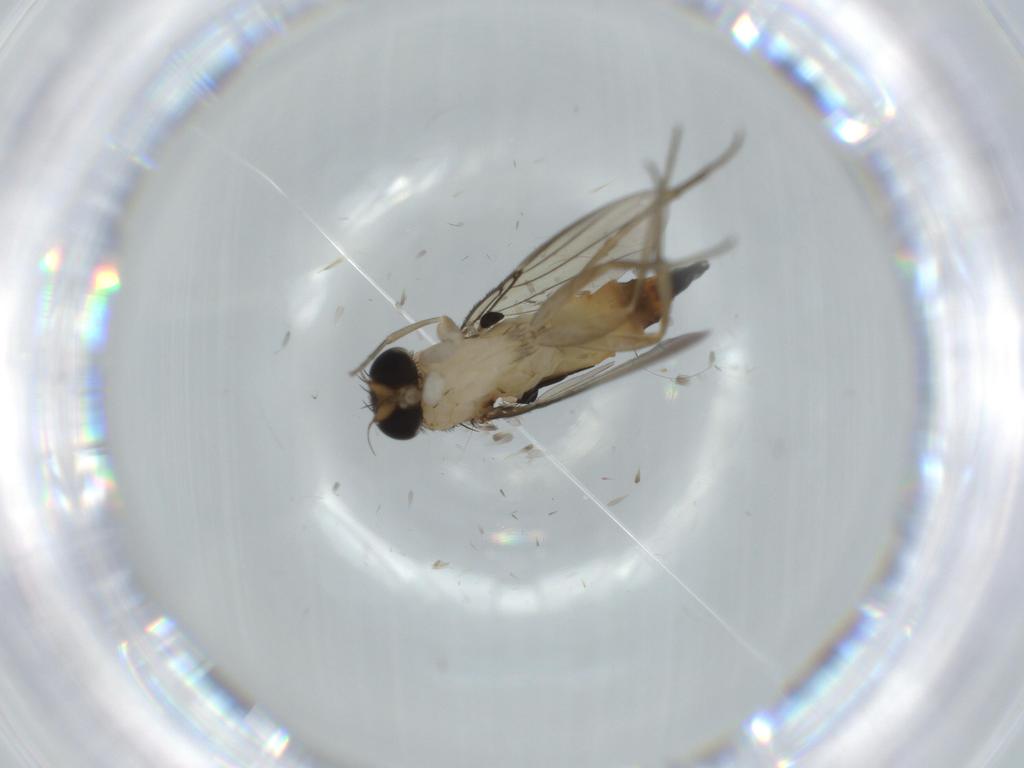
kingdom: Animalia
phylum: Arthropoda
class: Insecta
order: Diptera
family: Phoridae
